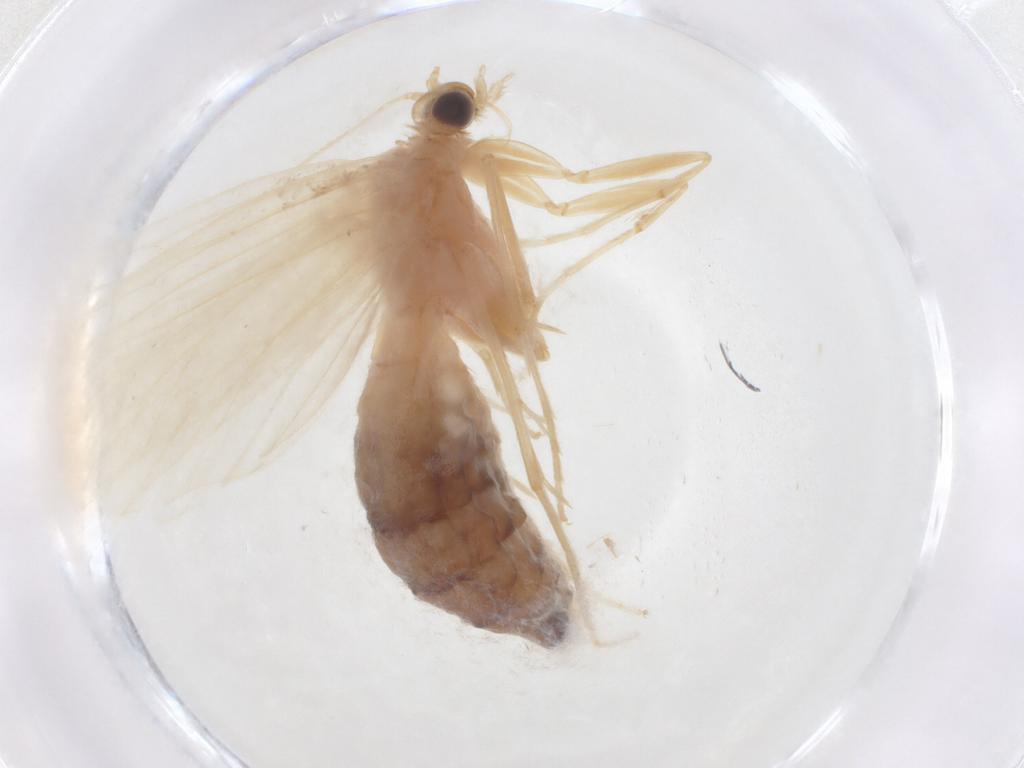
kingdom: Animalia
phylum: Arthropoda
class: Insecta
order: Lepidoptera
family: Crambidae
